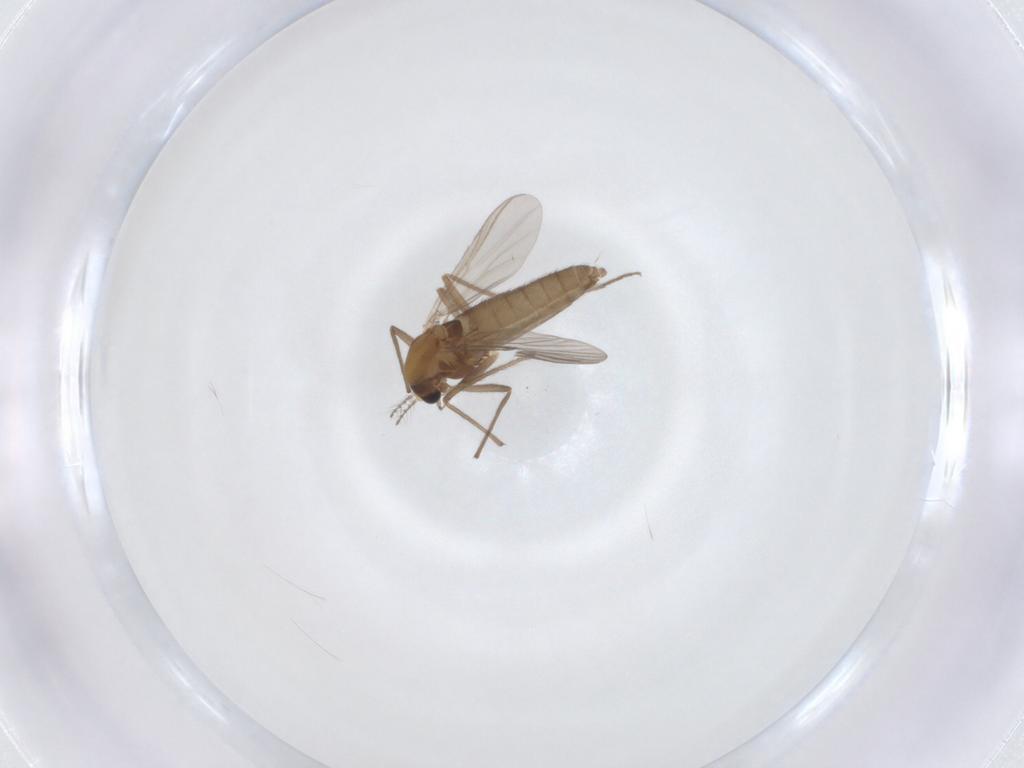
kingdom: Animalia
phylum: Arthropoda
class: Insecta
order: Diptera
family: Chironomidae
